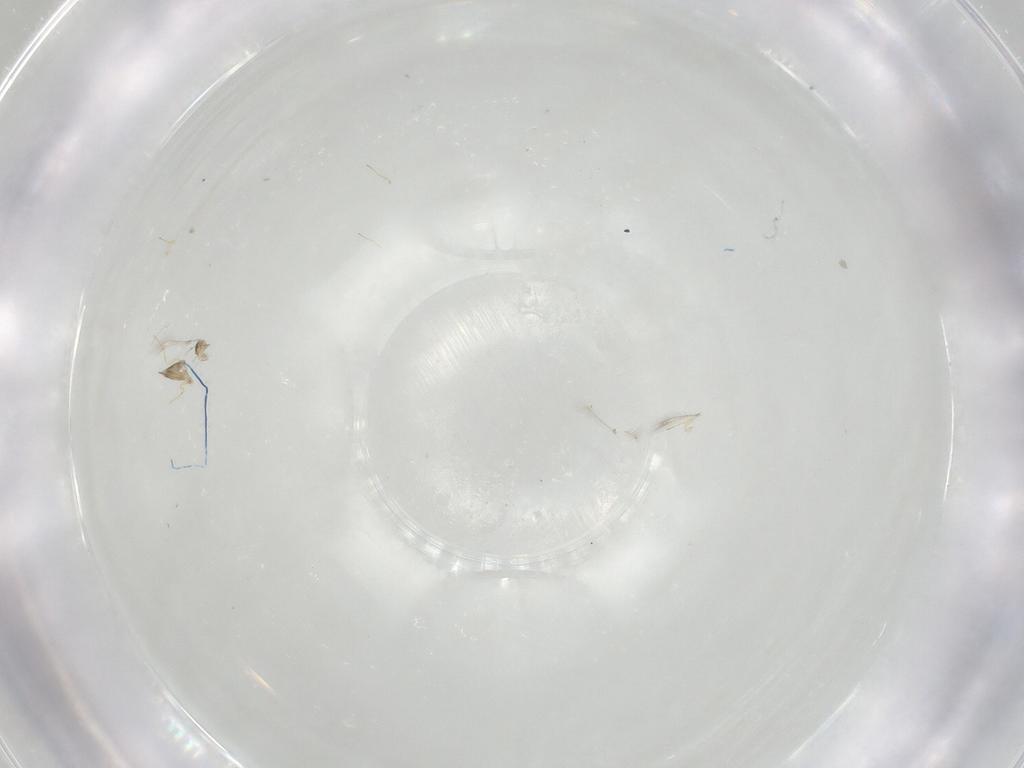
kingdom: Animalia
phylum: Arthropoda
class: Insecta
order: Hymenoptera
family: Mymaridae
